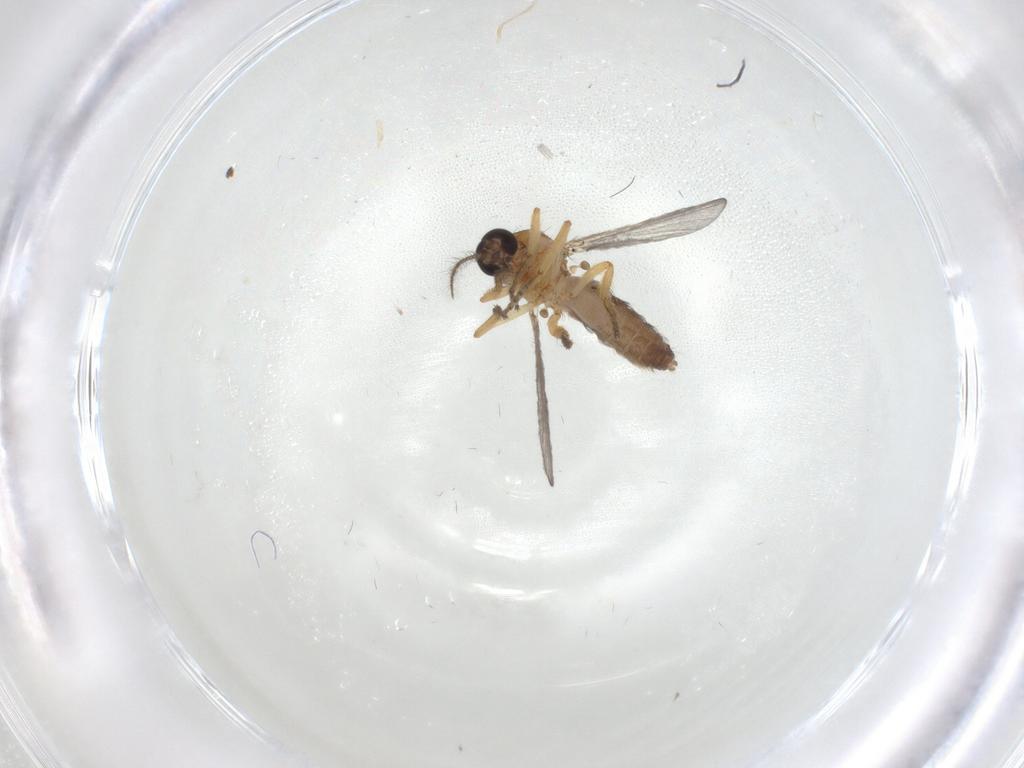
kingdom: Animalia
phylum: Arthropoda
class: Insecta
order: Diptera
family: Ceratopogonidae
